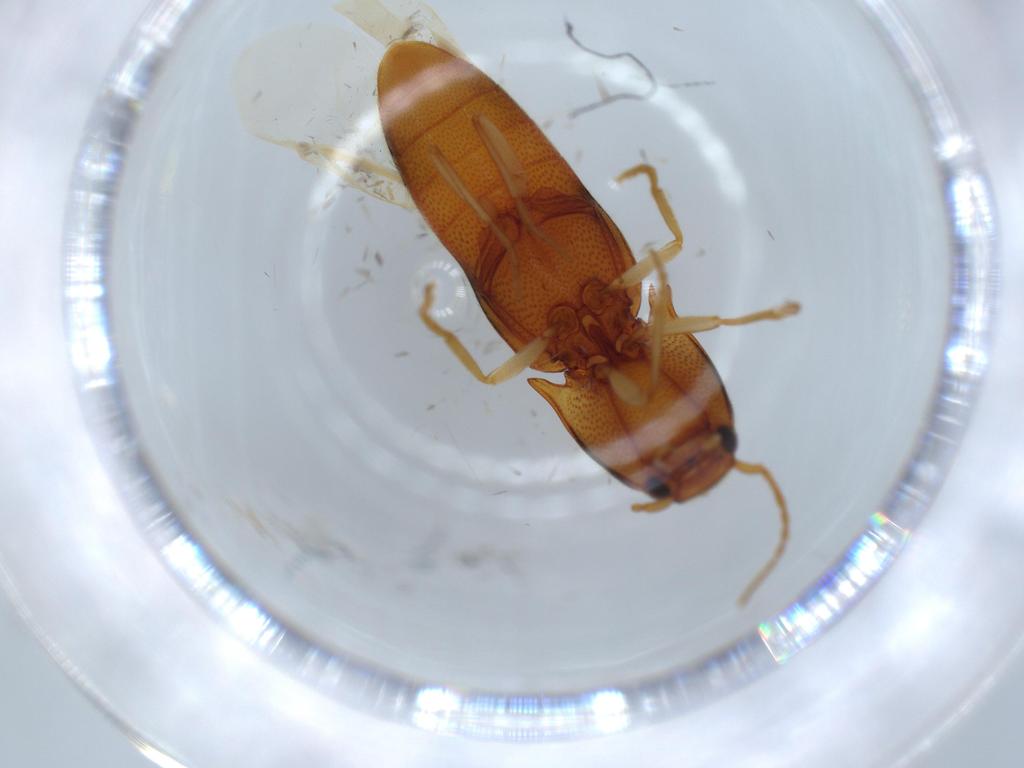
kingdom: Animalia
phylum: Arthropoda
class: Insecta
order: Coleoptera
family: Elateridae
